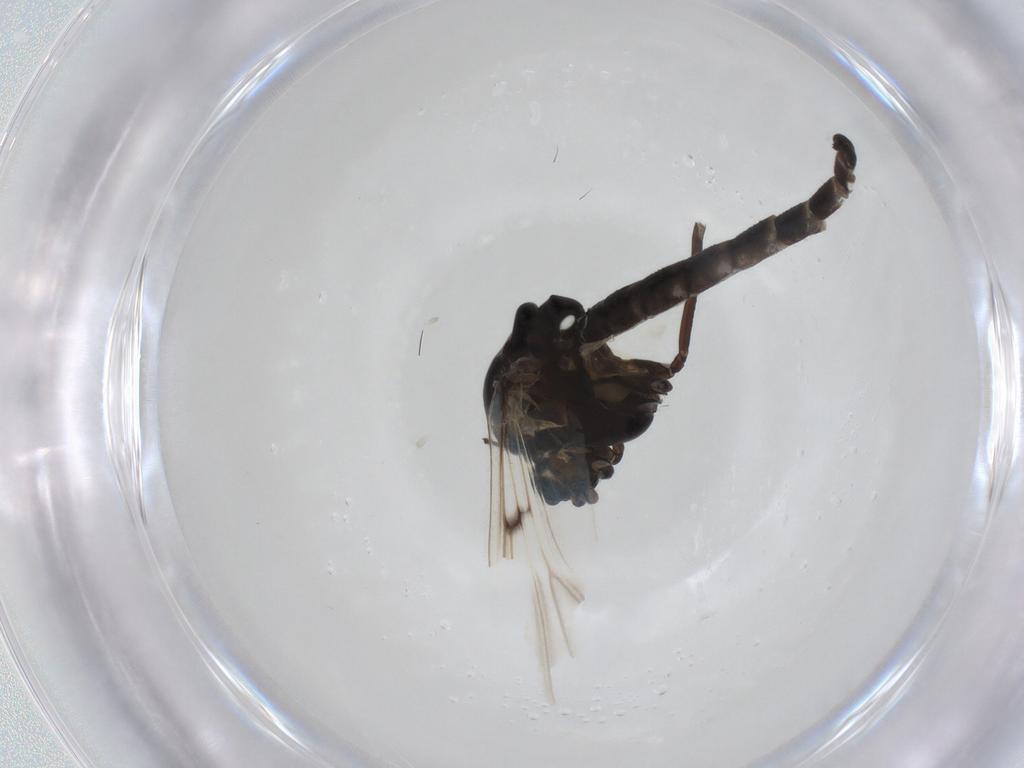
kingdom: Animalia
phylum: Arthropoda
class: Insecta
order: Diptera
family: Chironomidae
